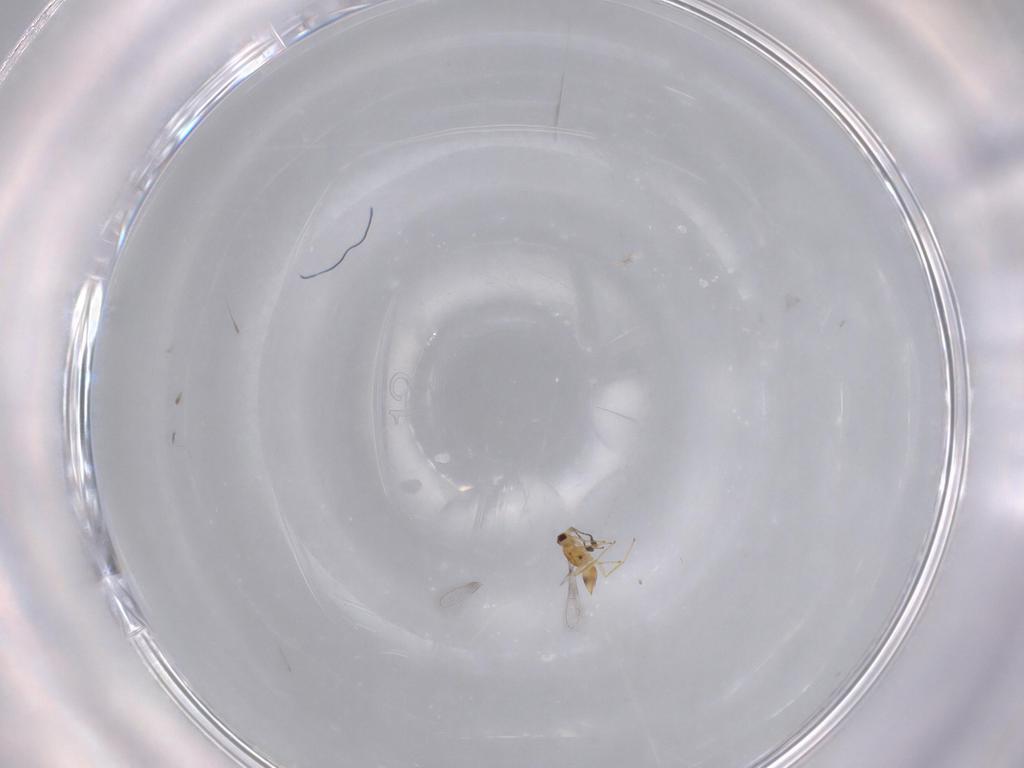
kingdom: Animalia
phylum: Arthropoda
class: Insecta
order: Hymenoptera
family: Mymaridae
